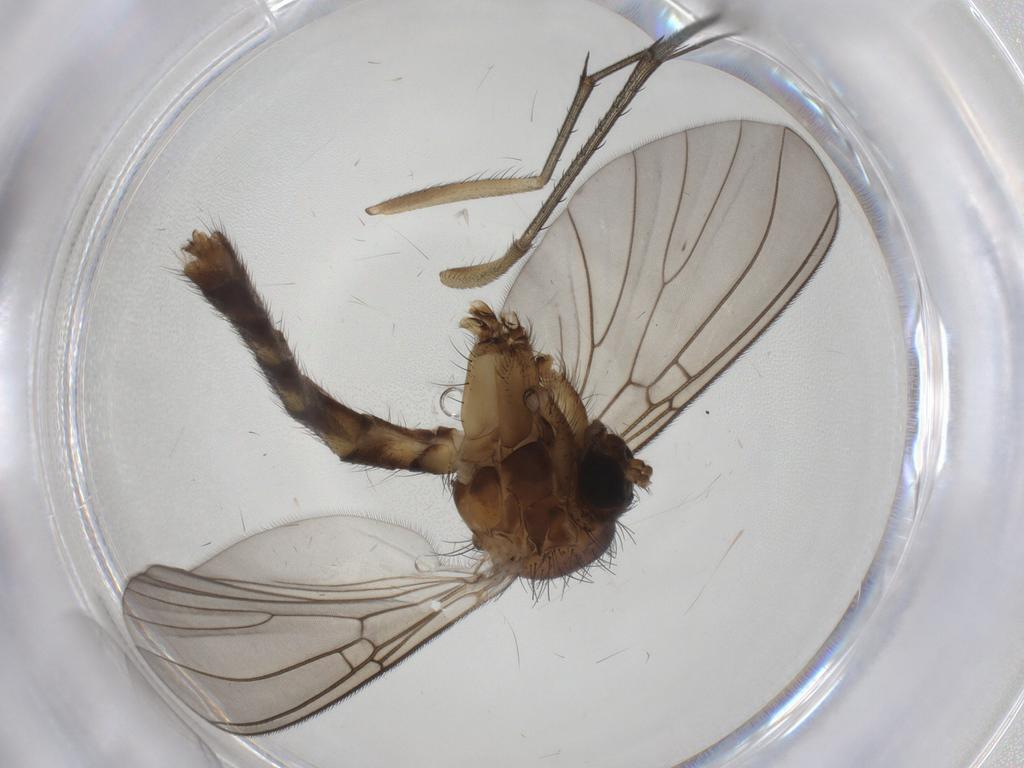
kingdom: Animalia
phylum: Arthropoda
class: Insecta
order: Diptera
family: Mycetophilidae
